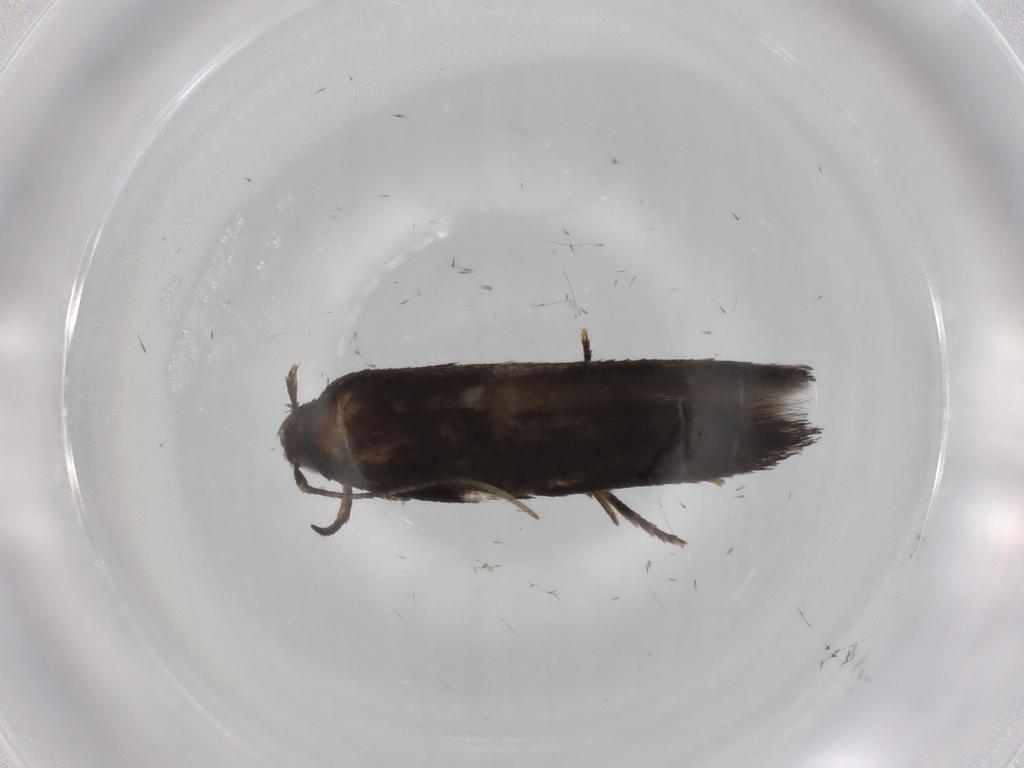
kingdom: Animalia
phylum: Arthropoda
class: Insecta
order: Lepidoptera
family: Cosmopterigidae
